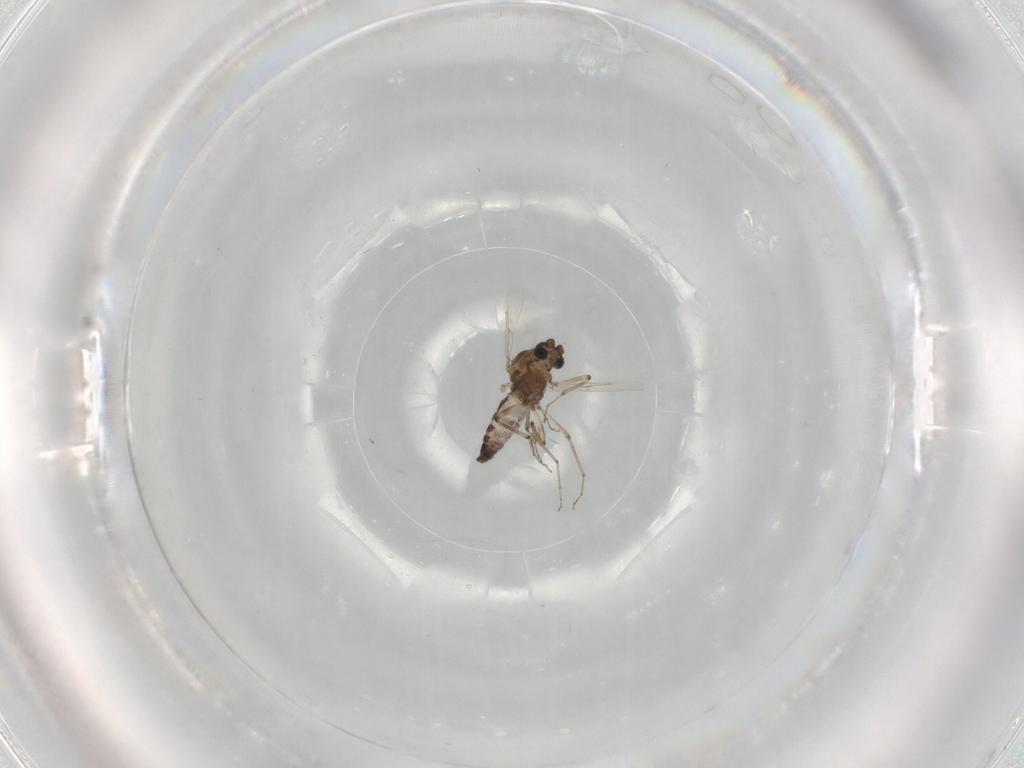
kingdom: Animalia
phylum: Arthropoda
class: Insecta
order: Diptera
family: Ceratopogonidae
